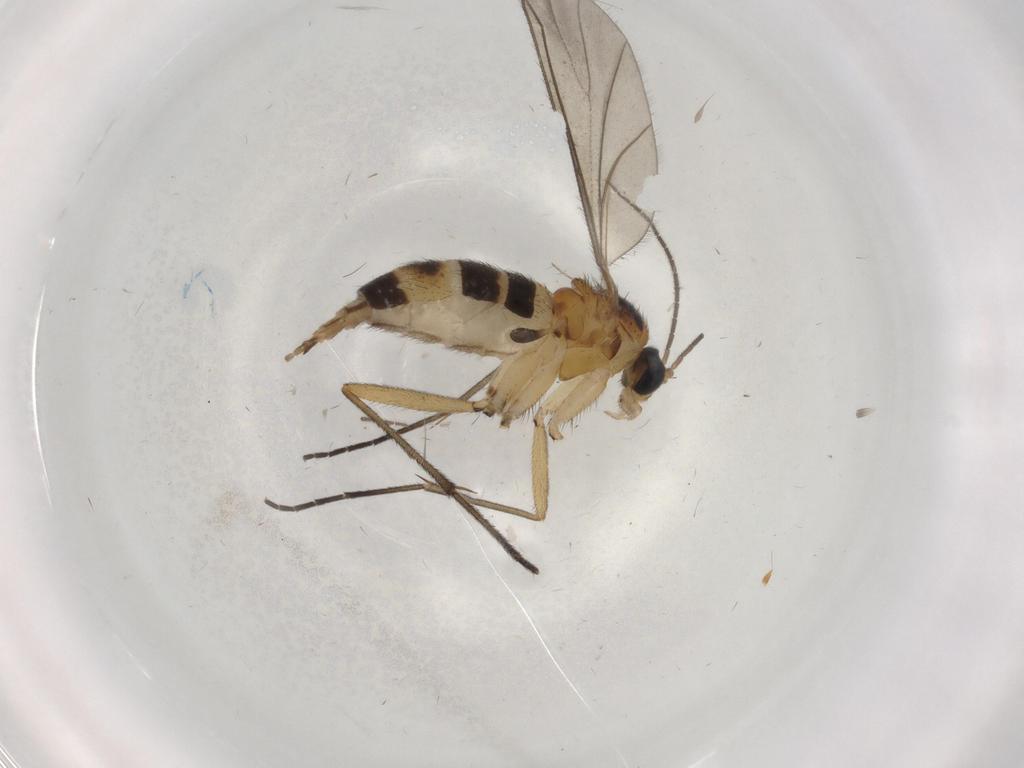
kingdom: Animalia
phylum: Arthropoda
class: Insecta
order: Diptera
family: Sciaridae
